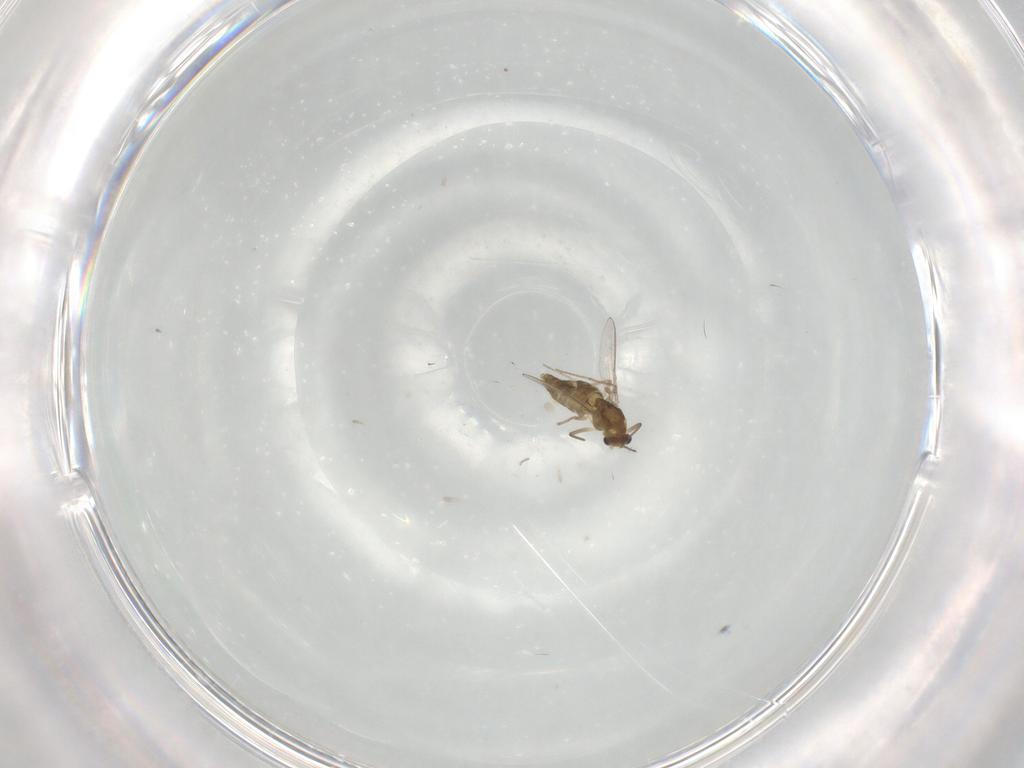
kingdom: Animalia
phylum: Arthropoda
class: Insecta
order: Diptera
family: Chironomidae
